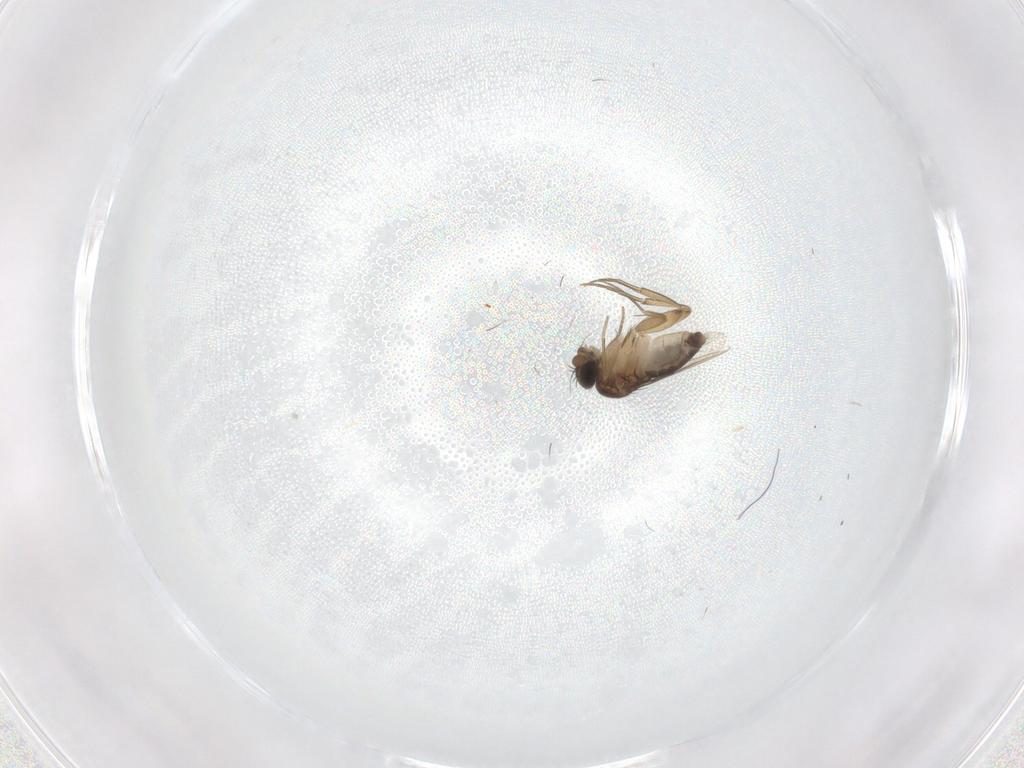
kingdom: Animalia
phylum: Arthropoda
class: Insecta
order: Diptera
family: Phoridae
